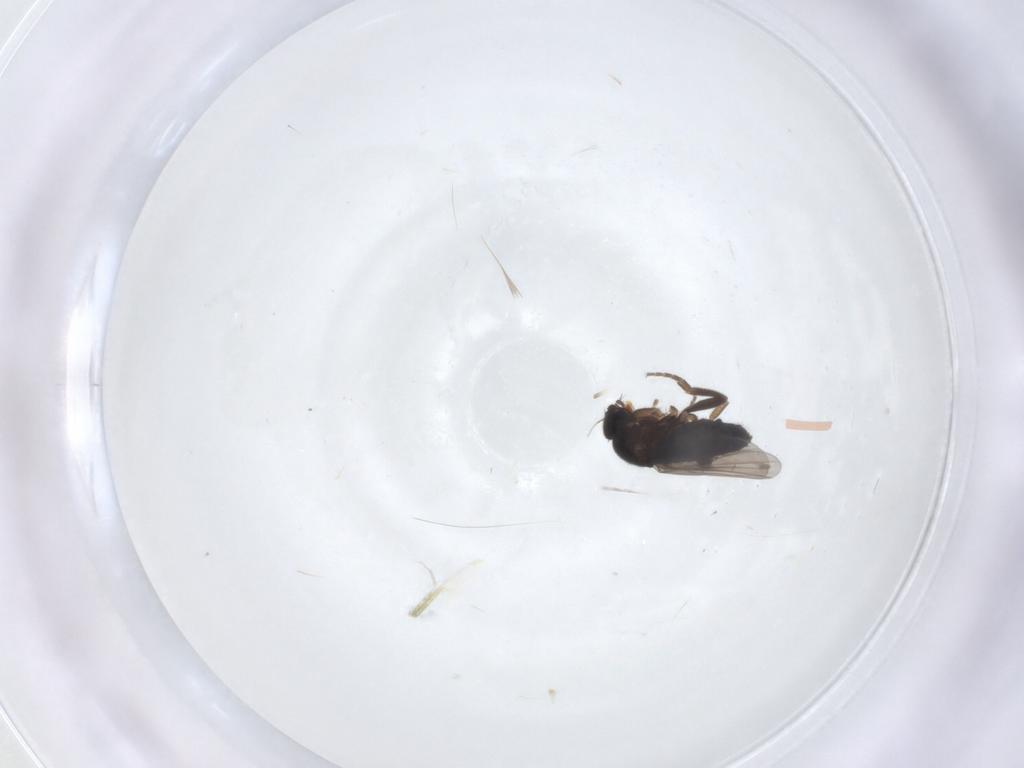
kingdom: Animalia
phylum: Arthropoda
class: Insecta
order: Diptera
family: Phoridae
